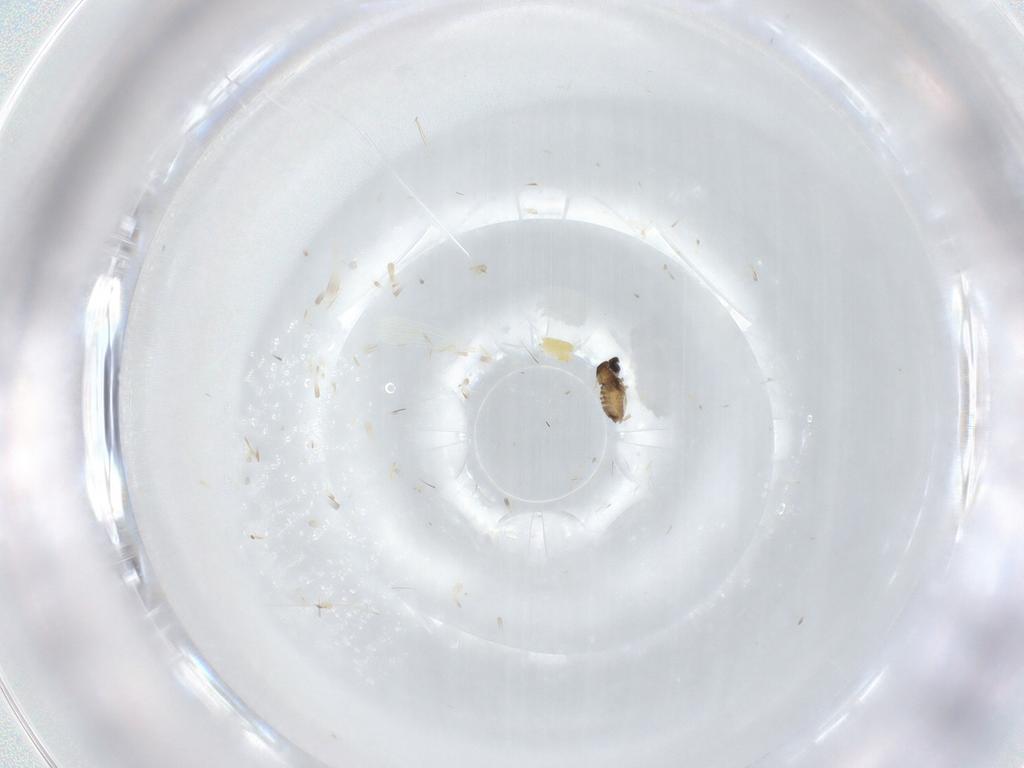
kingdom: Animalia
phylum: Arthropoda
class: Insecta
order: Diptera
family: Cecidomyiidae
